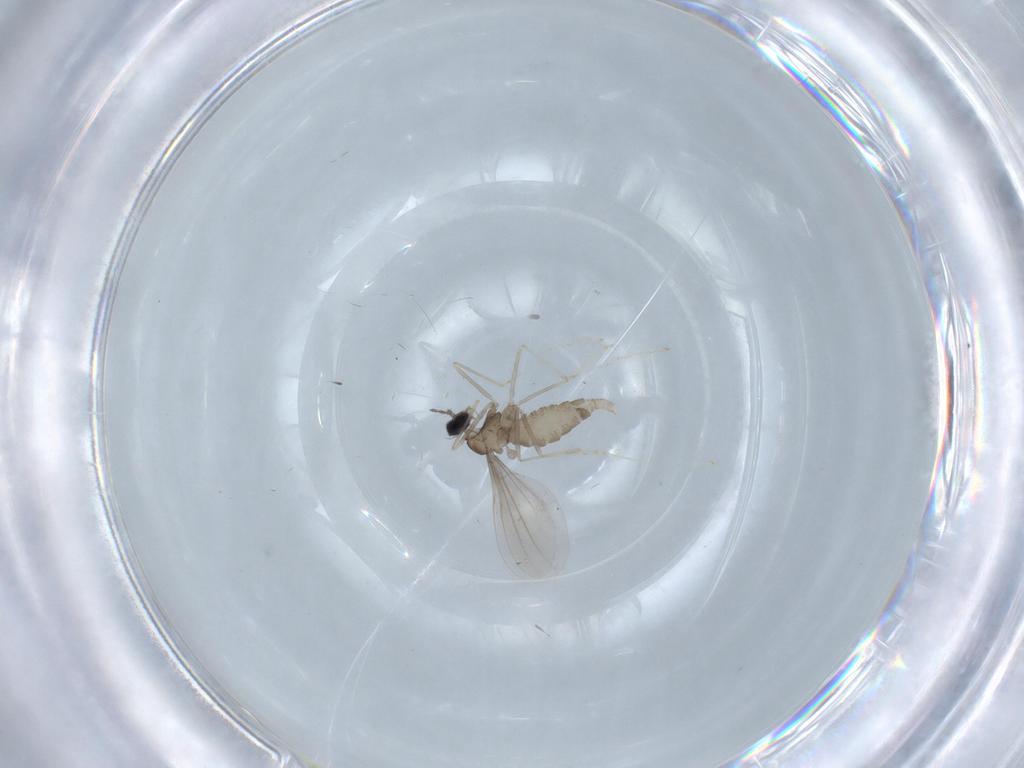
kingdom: Animalia
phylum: Arthropoda
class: Insecta
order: Diptera
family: Cecidomyiidae
